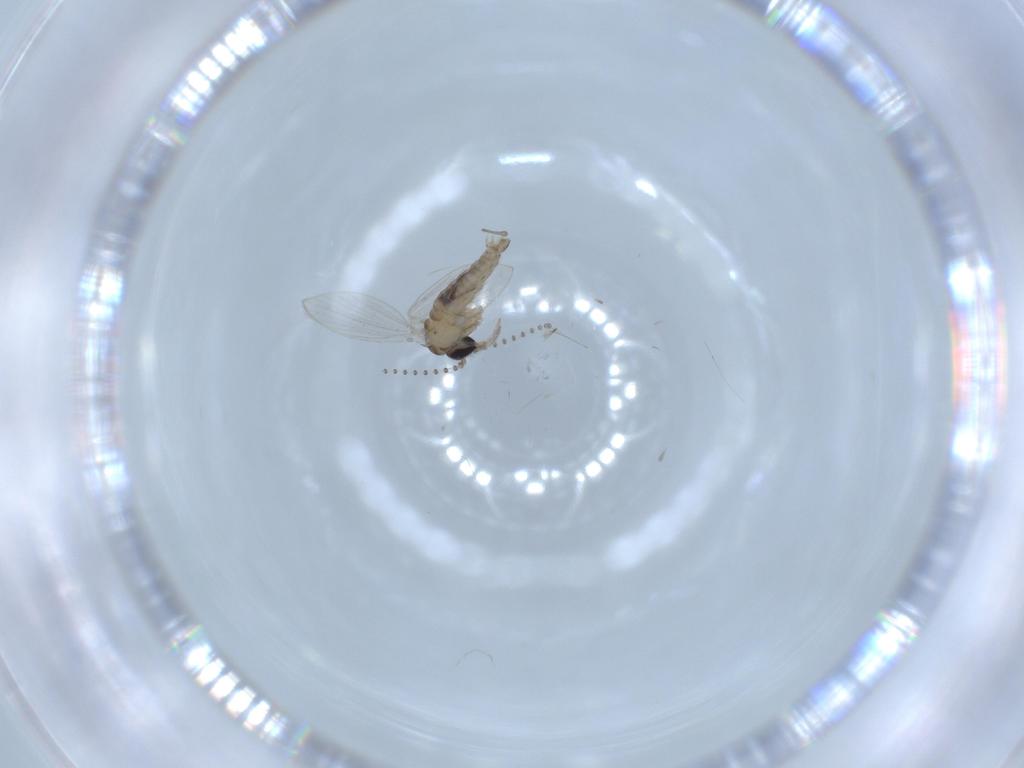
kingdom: Animalia
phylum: Arthropoda
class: Insecta
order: Diptera
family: Psychodidae
